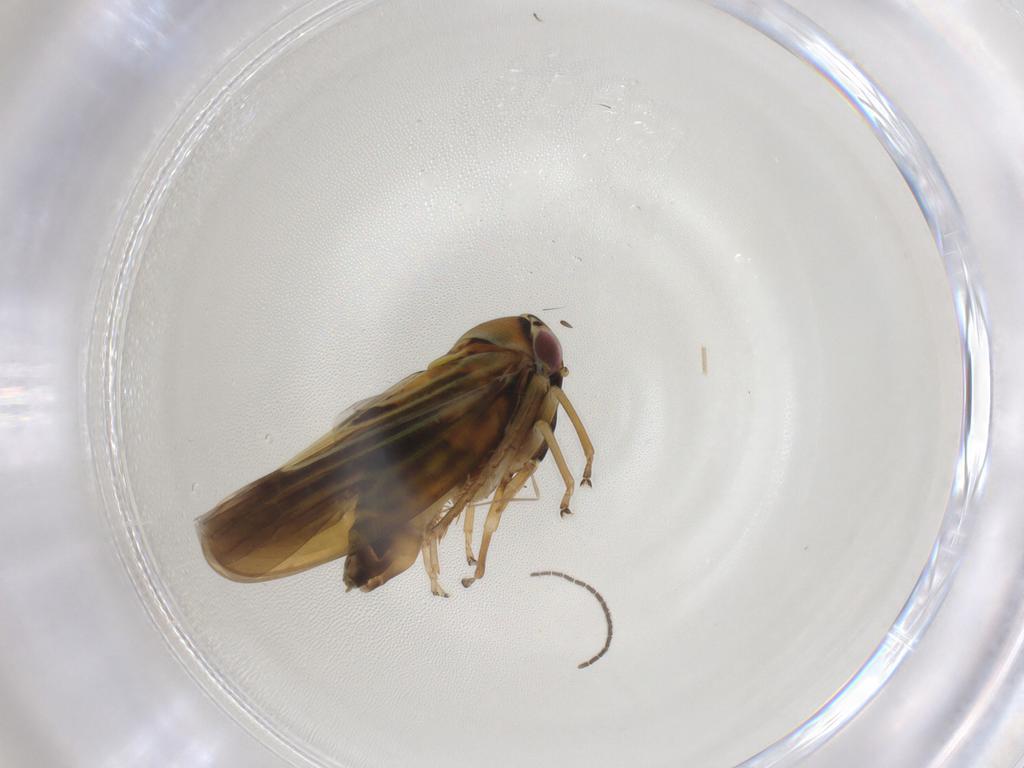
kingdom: Animalia
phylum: Arthropoda
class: Insecta
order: Hemiptera
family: Cicadellidae
